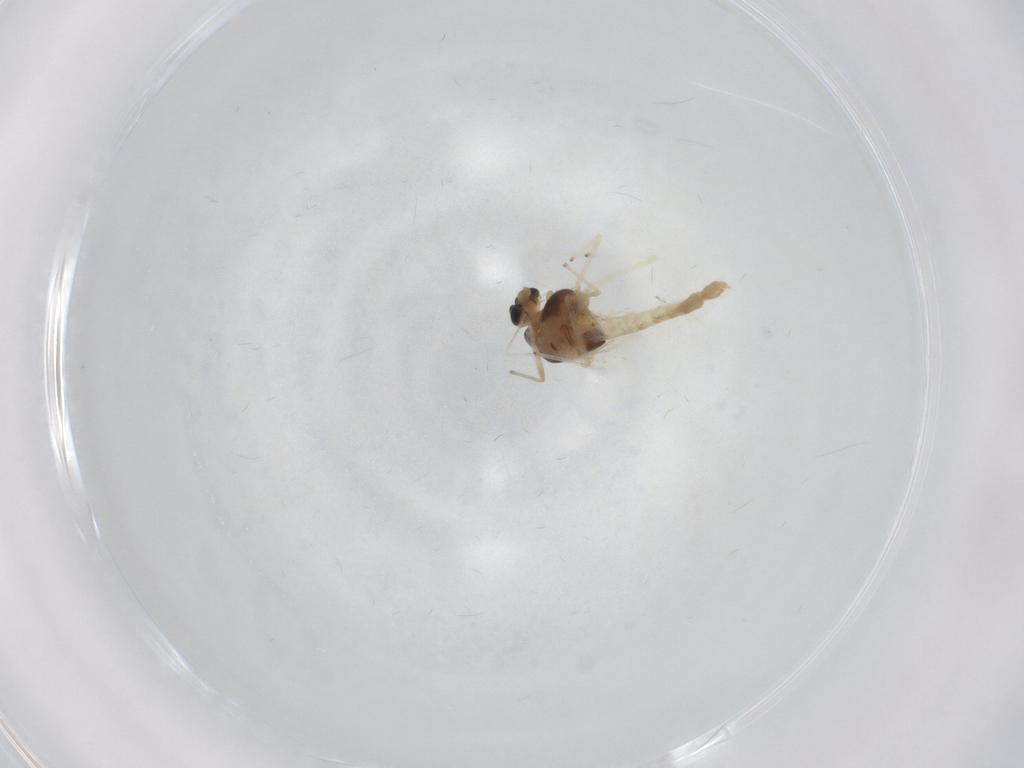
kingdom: Animalia
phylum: Arthropoda
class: Insecta
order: Diptera
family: Chironomidae
